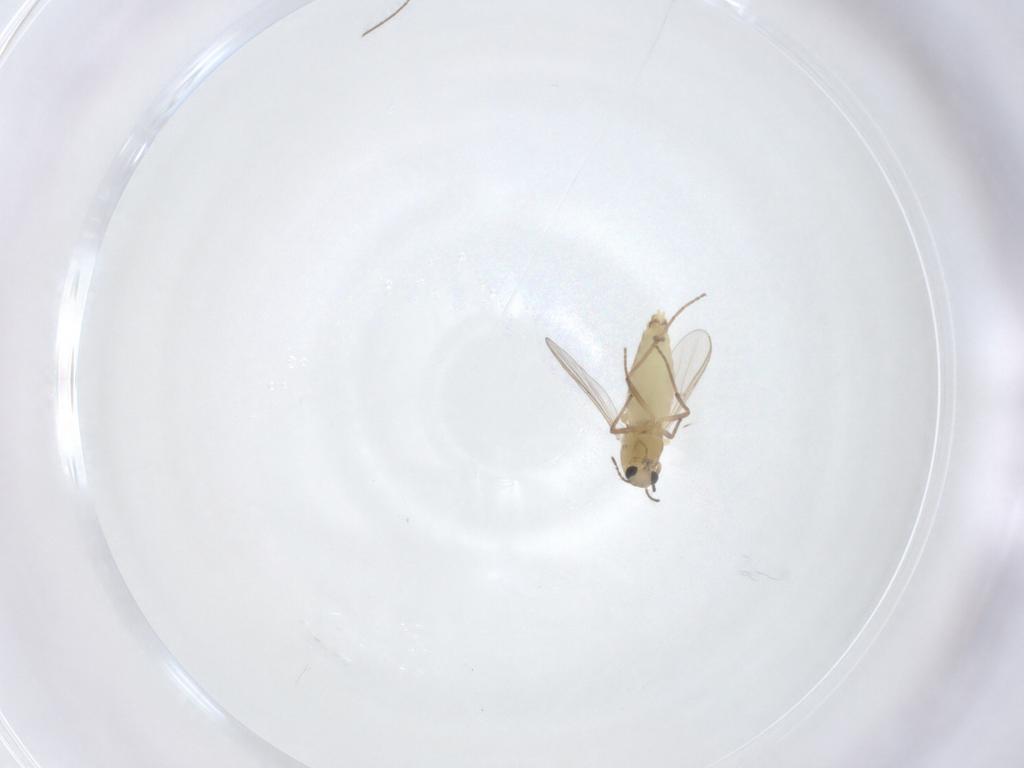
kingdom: Animalia
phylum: Arthropoda
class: Insecta
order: Diptera
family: Chironomidae
